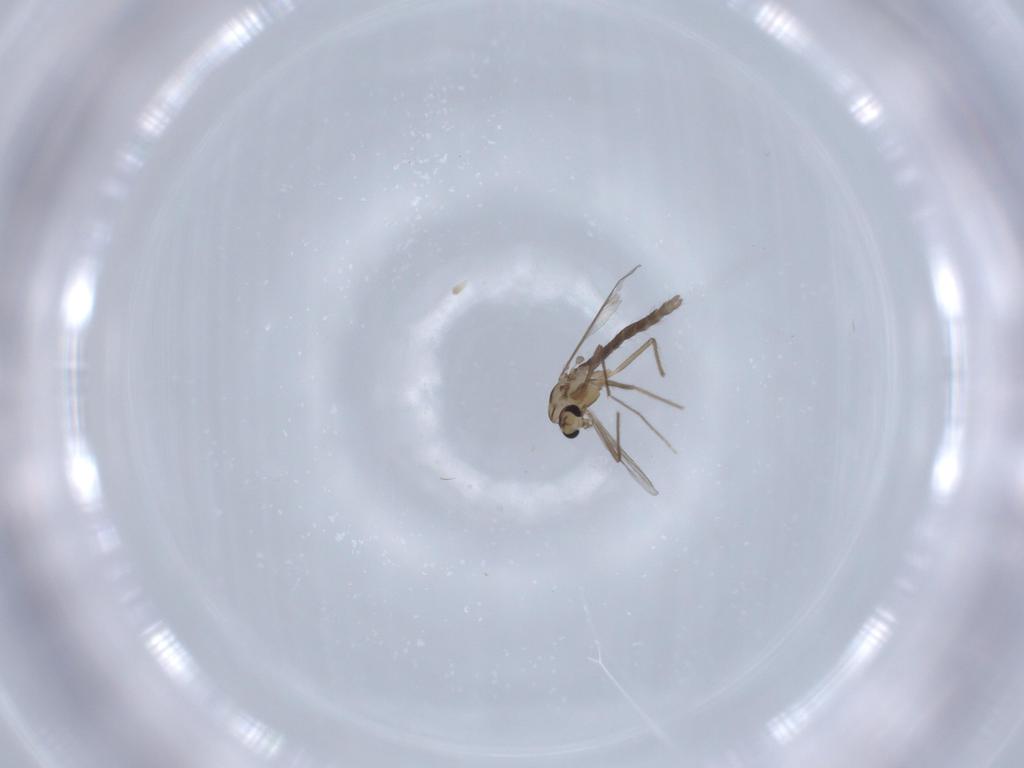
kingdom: Animalia
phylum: Arthropoda
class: Insecta
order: Diptera
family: Chironomidae
